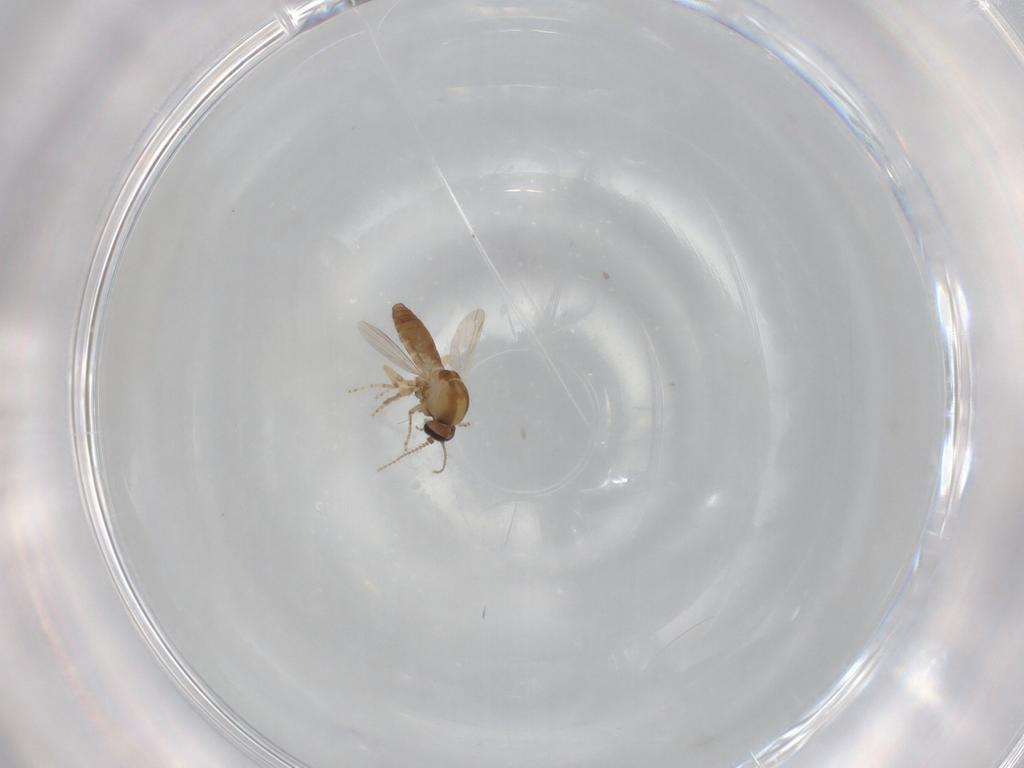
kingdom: Animalia
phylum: Arthropoda
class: Insecta
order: Diptera
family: Ceratopogonidae
